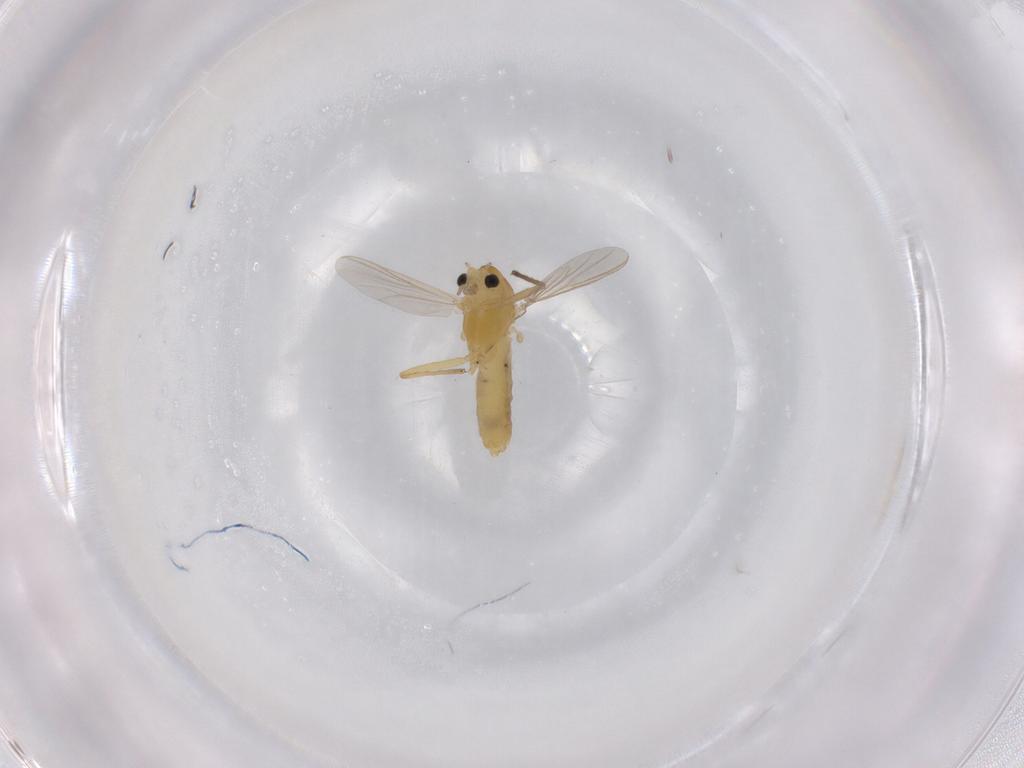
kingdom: Animalia
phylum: Arthropoda
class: Insecta
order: Diptera
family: Chironomidae
